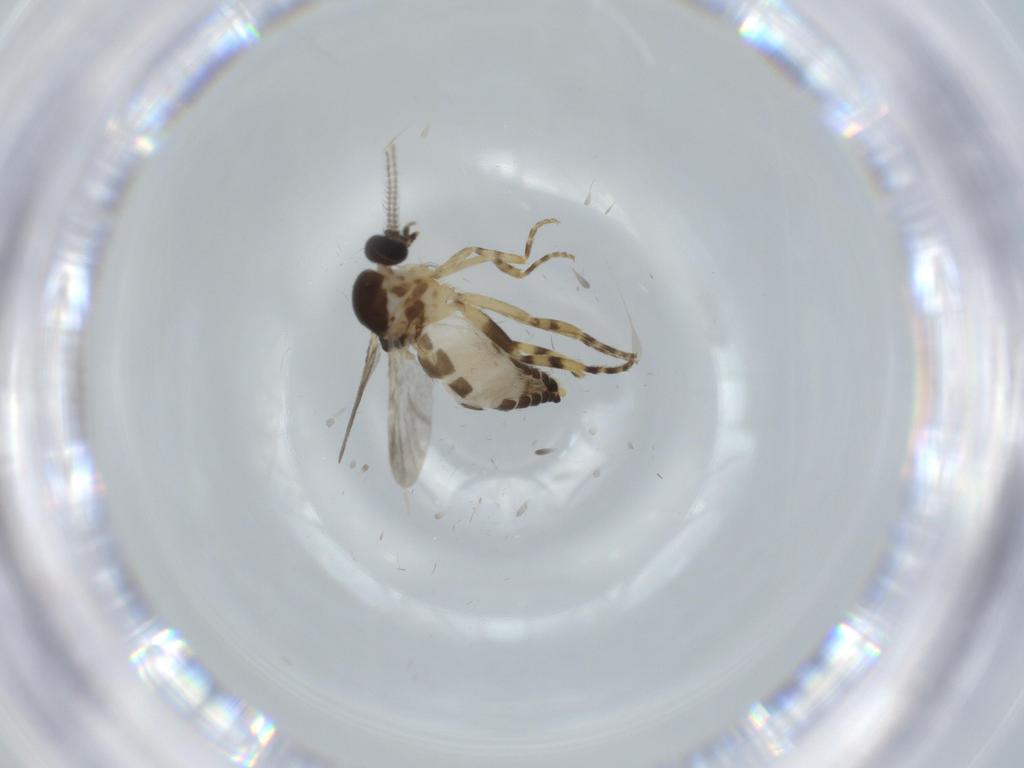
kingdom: Animalia
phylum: Arthropoda
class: Insecta
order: Diptera
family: Ceratopogonidae
